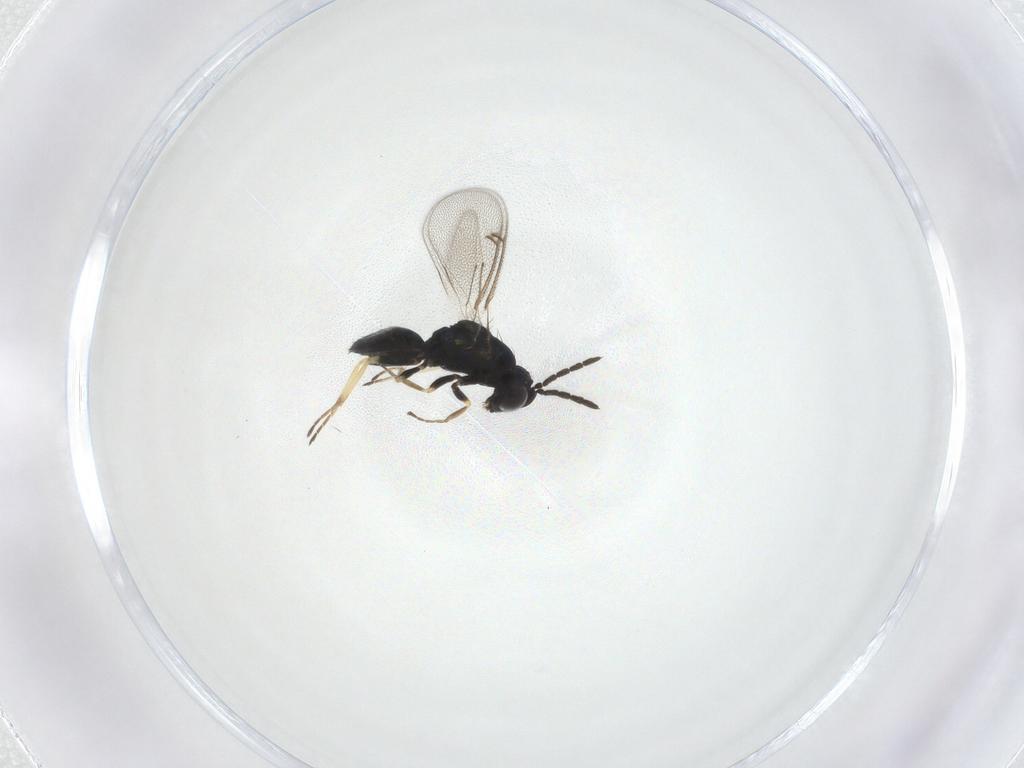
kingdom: Animalia
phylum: Arthropoda
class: Insecta
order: Hymenoptera
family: Eulophidae
